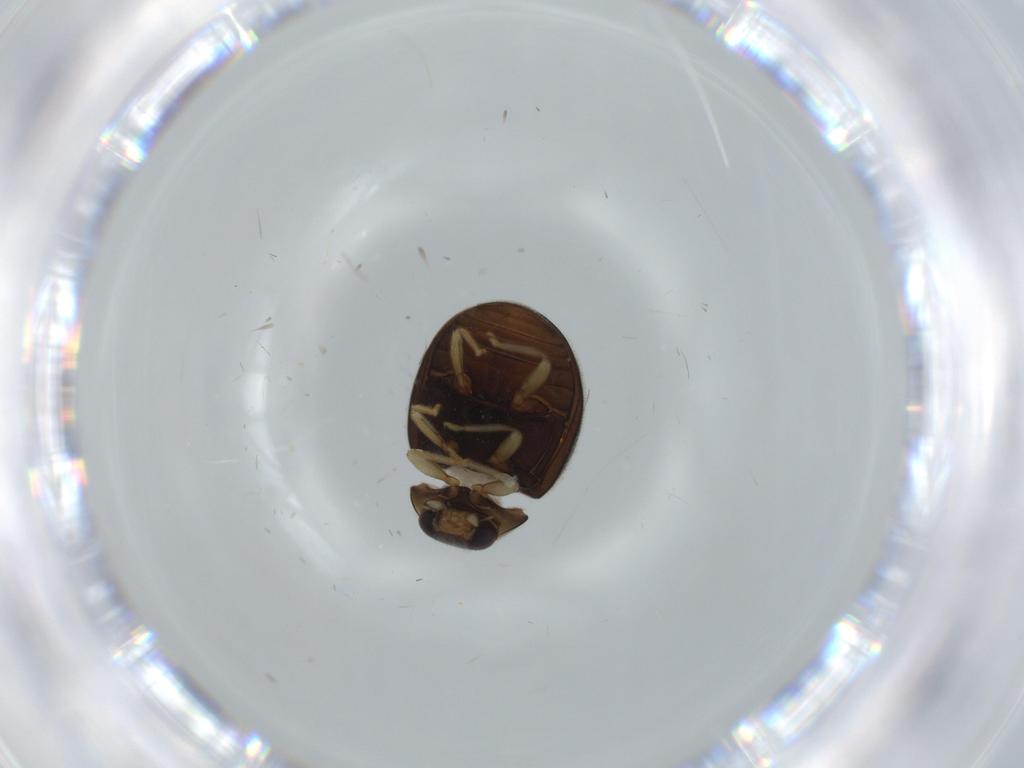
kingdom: Animalia
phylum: Arthropoda
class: Insecta
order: Coleoptera
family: Coccinellidae
